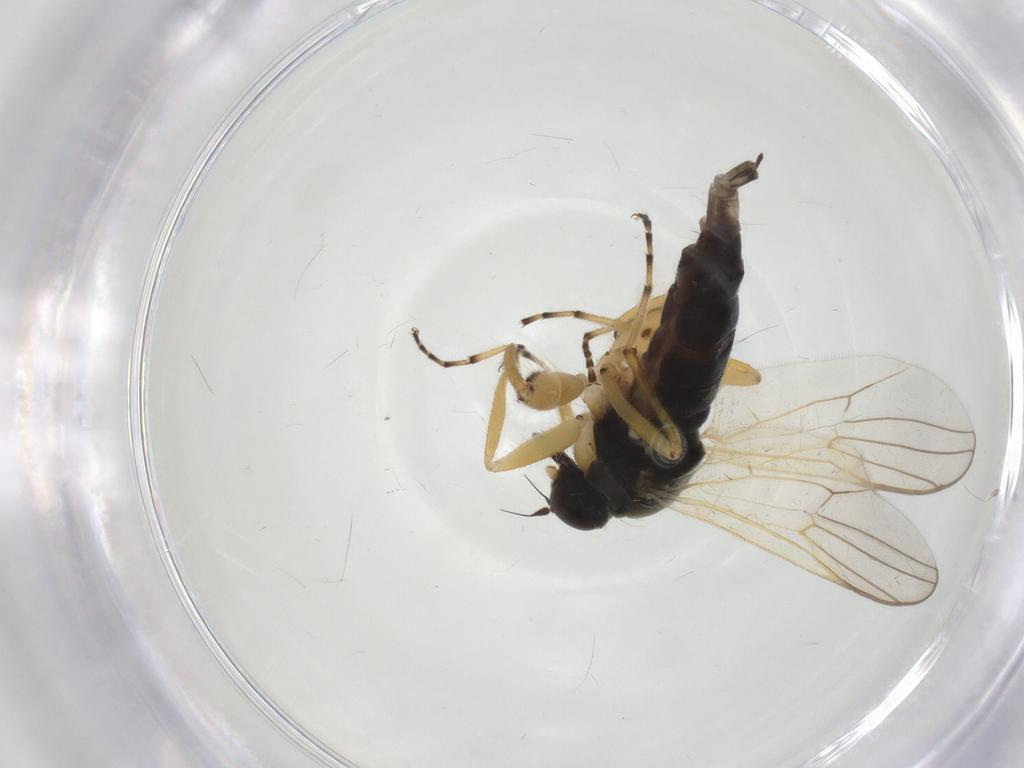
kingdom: Animalia
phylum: Arthropoda
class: Insecta
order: Diptera
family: Hybotidae
